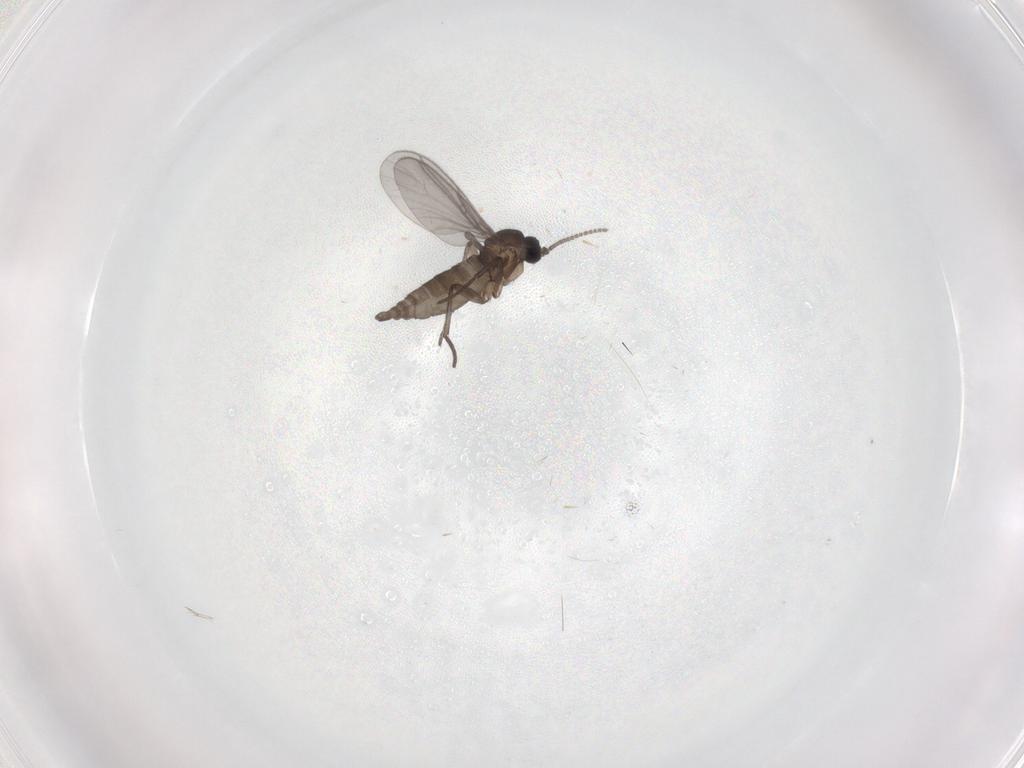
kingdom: Animalia
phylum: Arthropoda
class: Insecta
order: Diptera
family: Sciaridae
